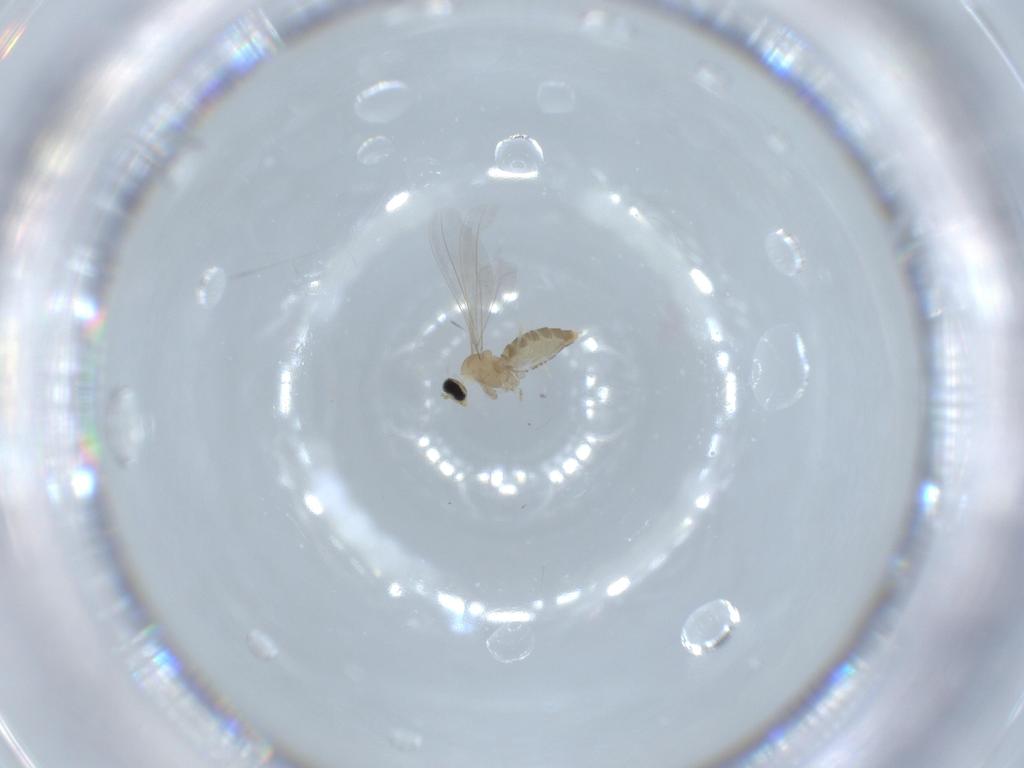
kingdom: Animalia
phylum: Arthropoda
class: Insecta
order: Diptera
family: Cecidomyiidae
